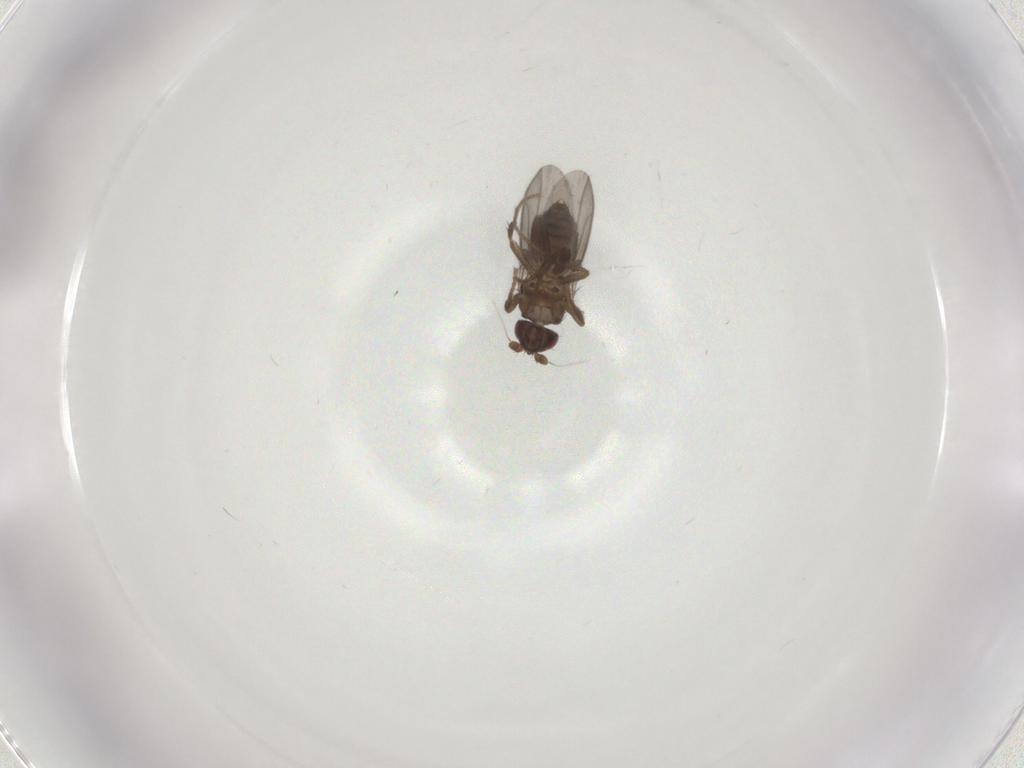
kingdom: Animalia
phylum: Arthropoda
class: Insecta
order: Diptera
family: Sphaeroceridae
